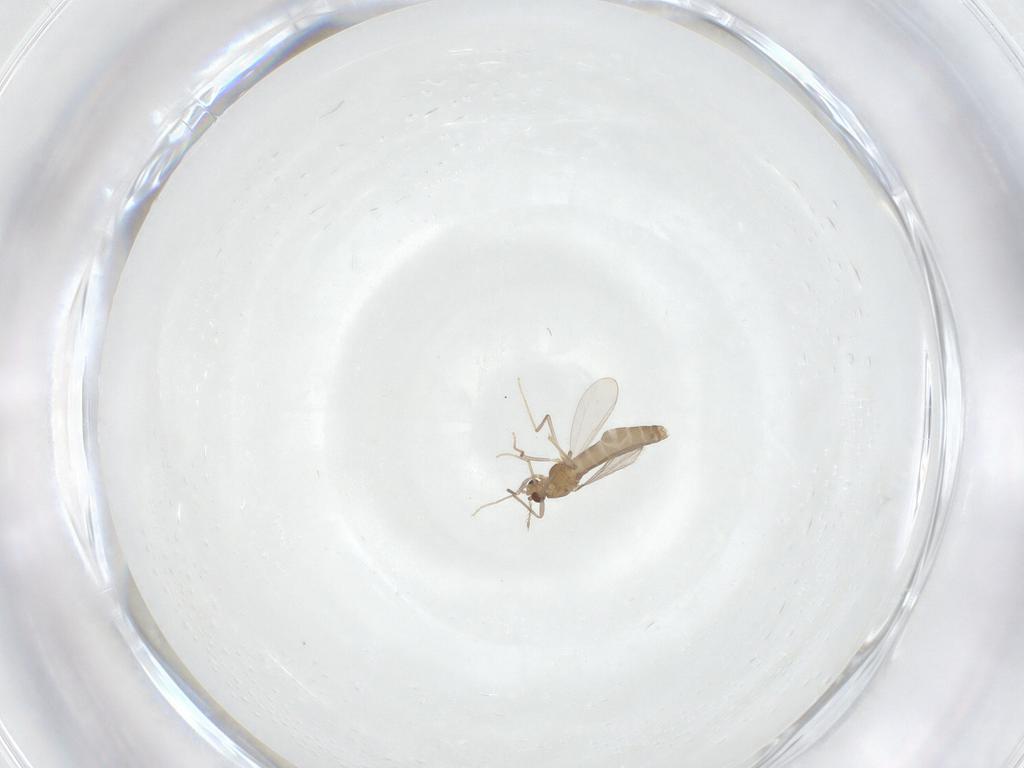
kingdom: Animalia
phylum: Arthropoda
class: Insecta
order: Diptera
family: Chironomidae
